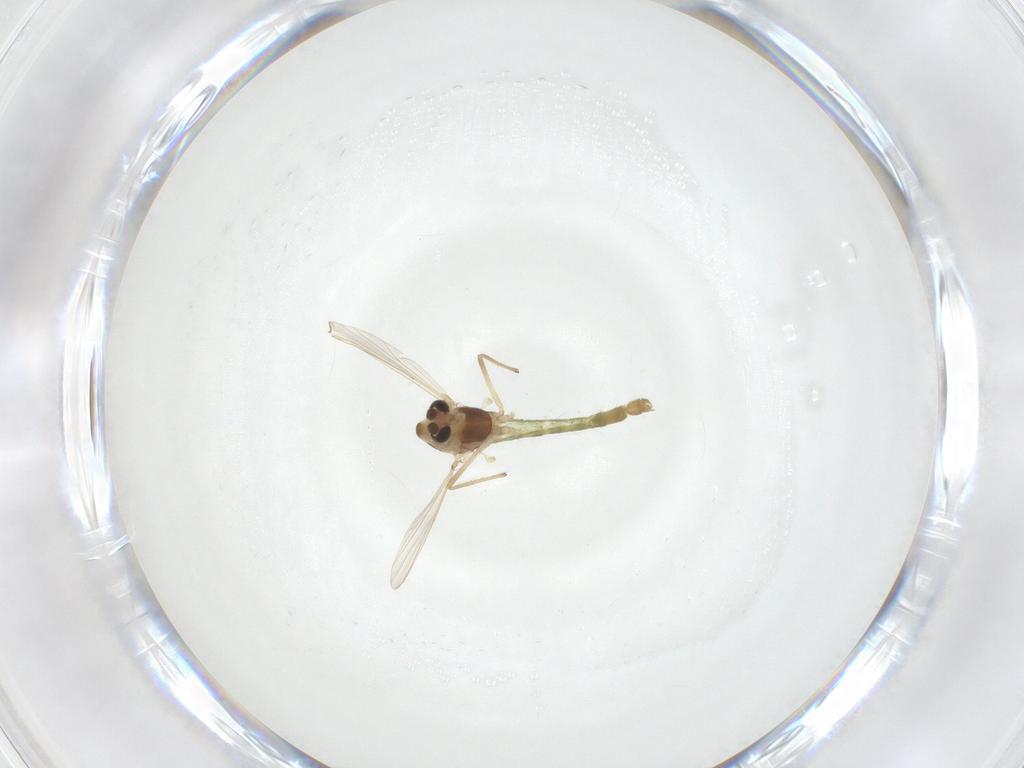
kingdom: Animalia
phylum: Arthropoda
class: Insecta
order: Diptera
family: Chironomidae
